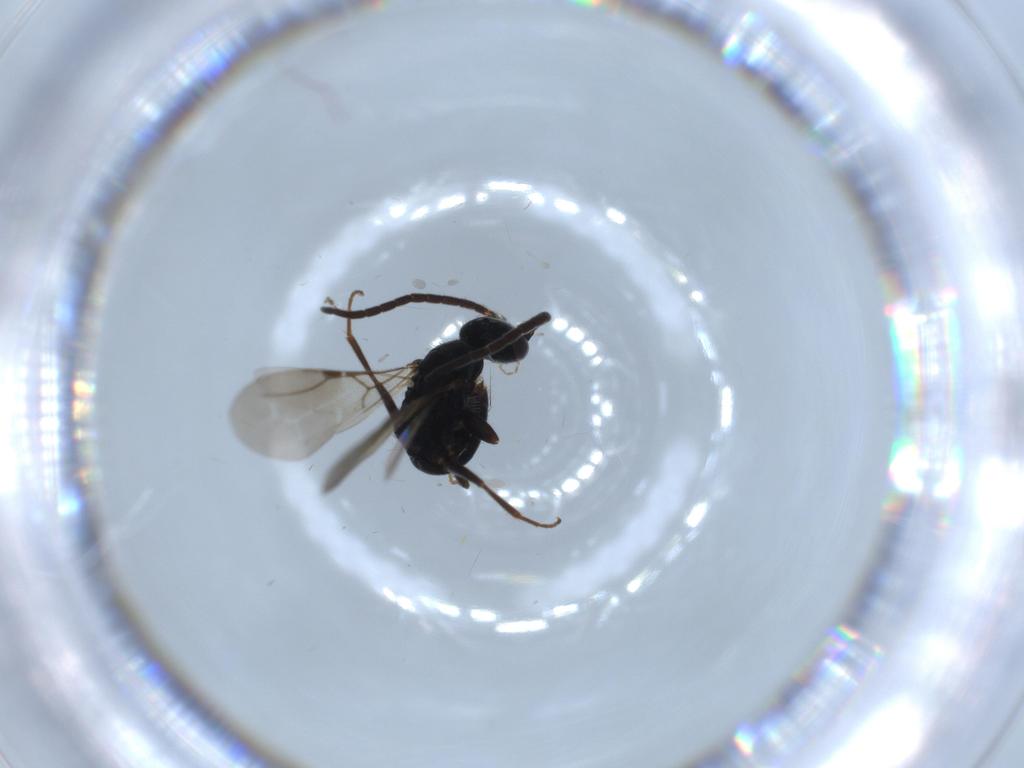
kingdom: Animalia
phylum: Arthropoda
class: Insecta
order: Hymenoptera
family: Bethylidae
